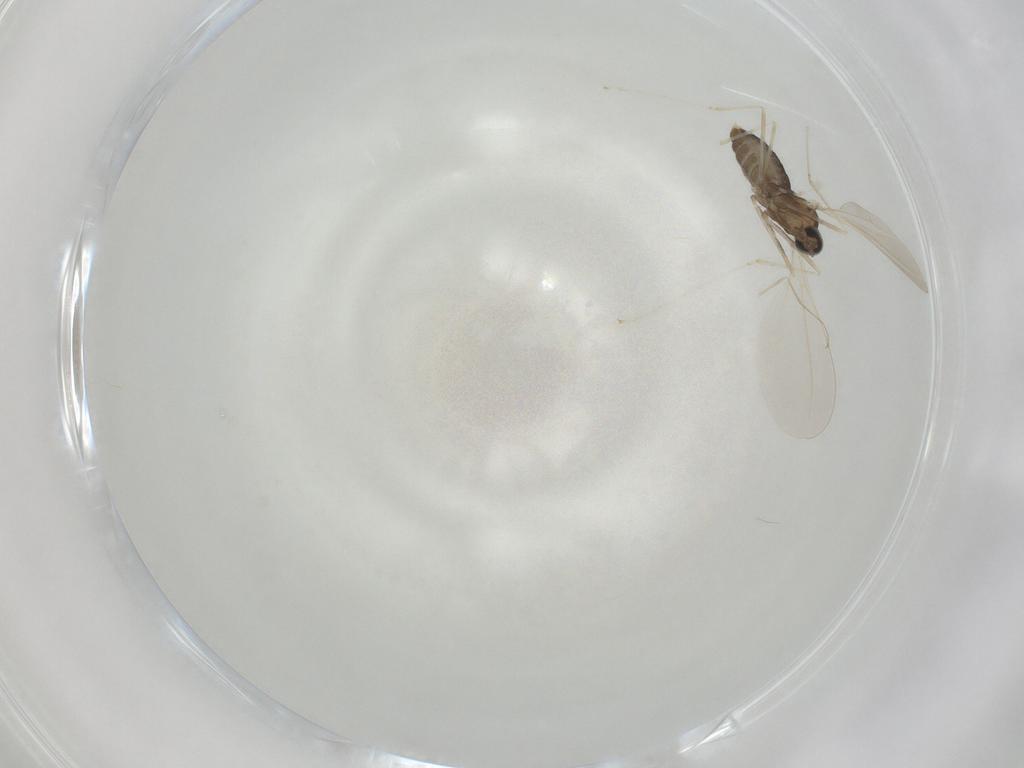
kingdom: Animalia
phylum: Arthropoda
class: Insecta
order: Diptera
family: Cecidomyiidae
